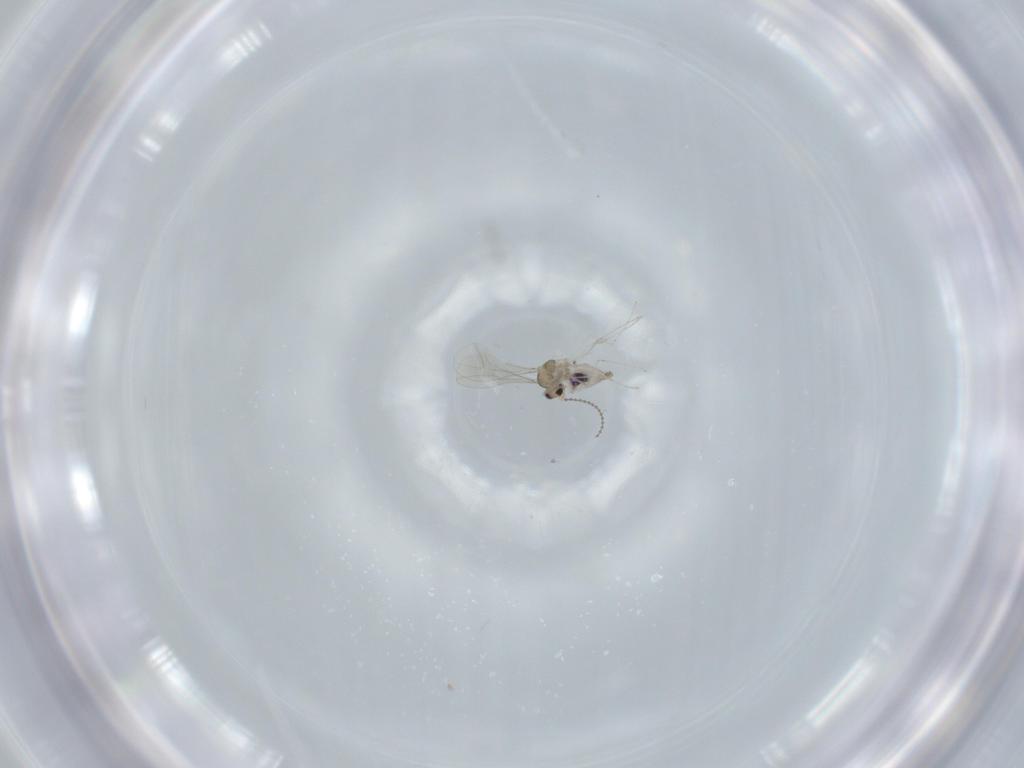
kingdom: Animalia
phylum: Arthropoda
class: Insecta
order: Diptera
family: Cecidomyiidae
